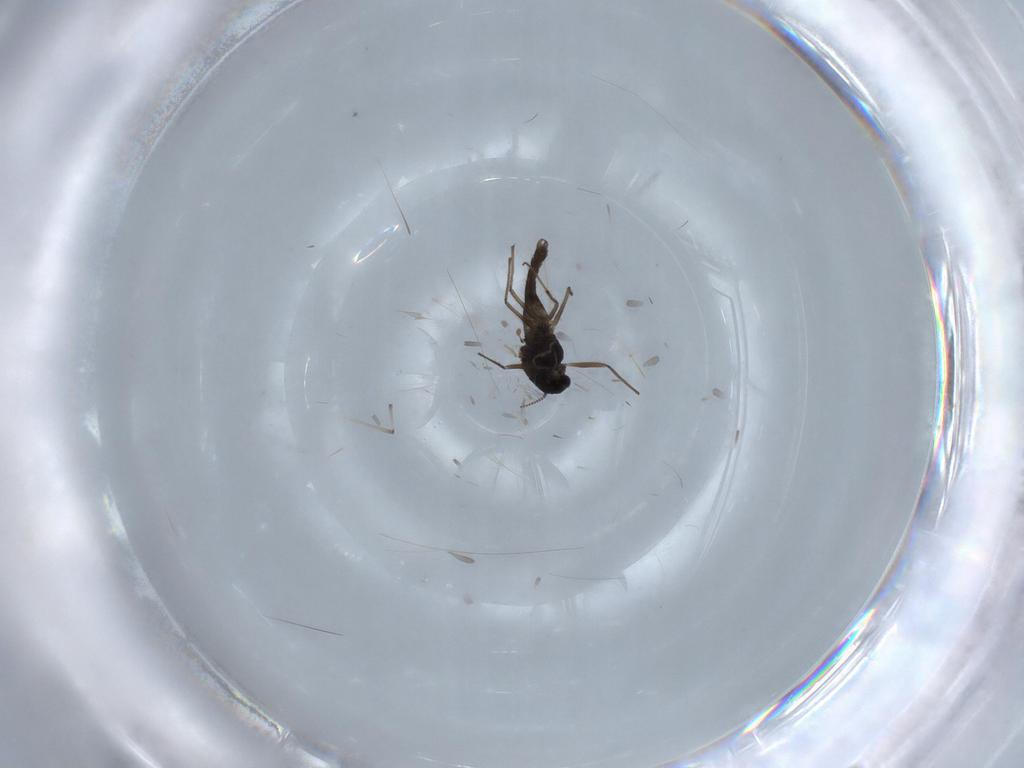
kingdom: Animalia
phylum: Arthropoda
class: Insecta
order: Diptera
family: Chironomidae
